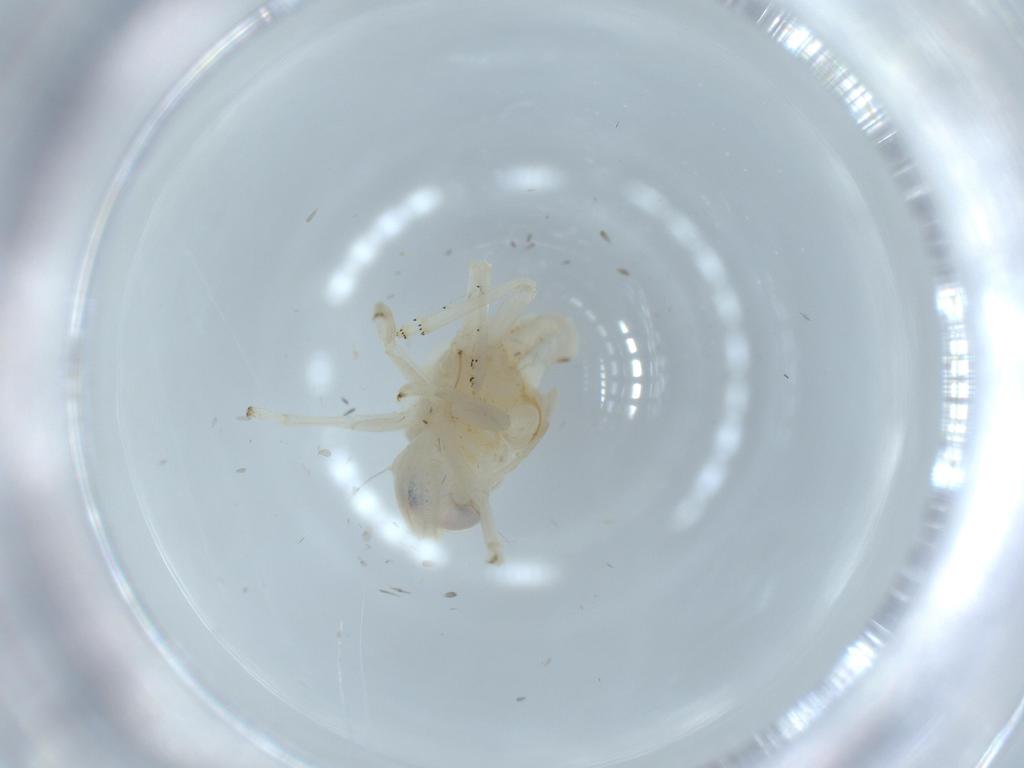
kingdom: Animalia
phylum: Arthropoda
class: Insecta
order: Hemiptera
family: Nogodinidae
